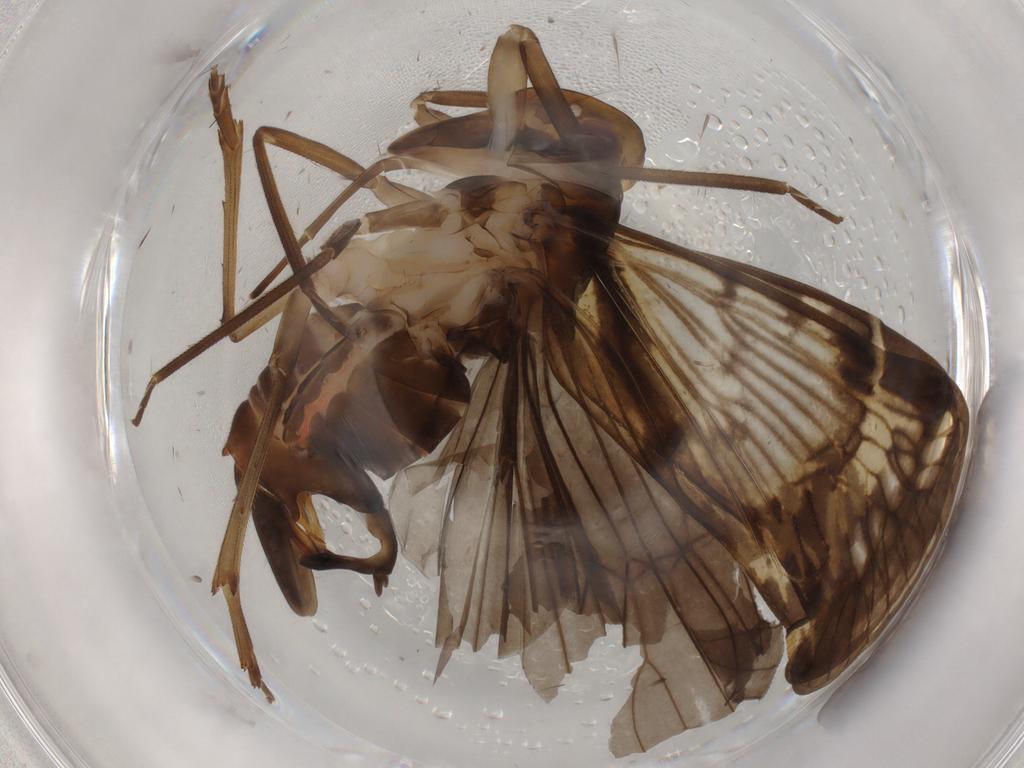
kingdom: Animalia
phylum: Arthropoda
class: Insecta
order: Hemiptera
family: Cixiidae
